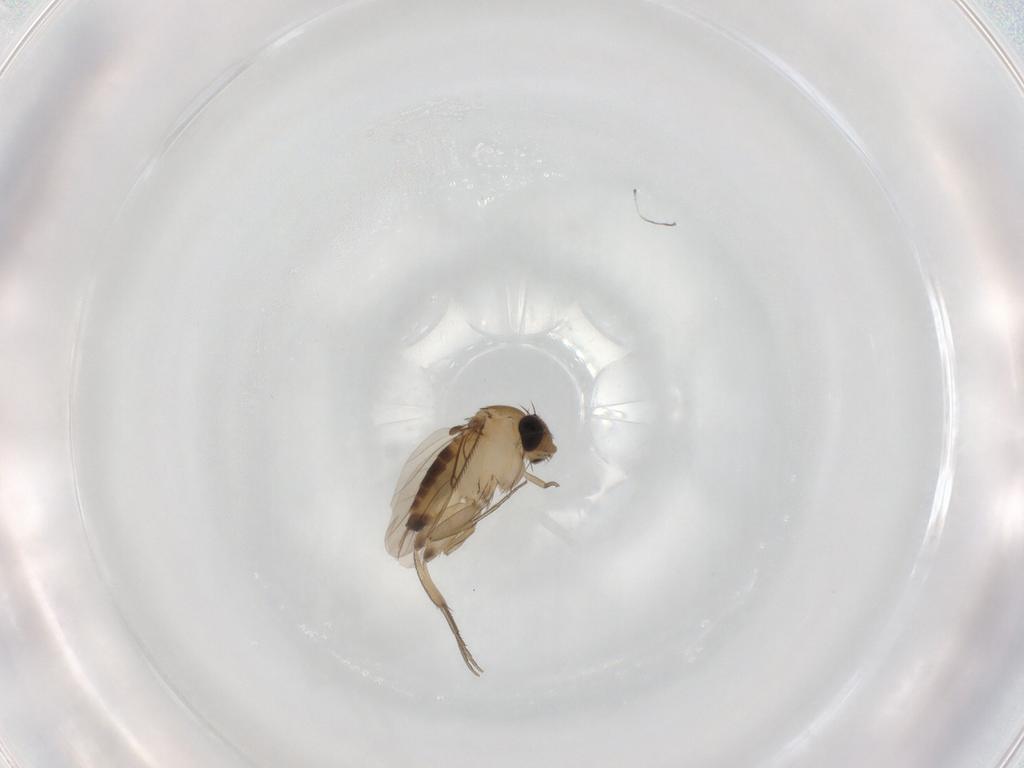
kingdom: Animalia
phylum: Arthropoda
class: Insecta
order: Diptera
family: Phoridae
